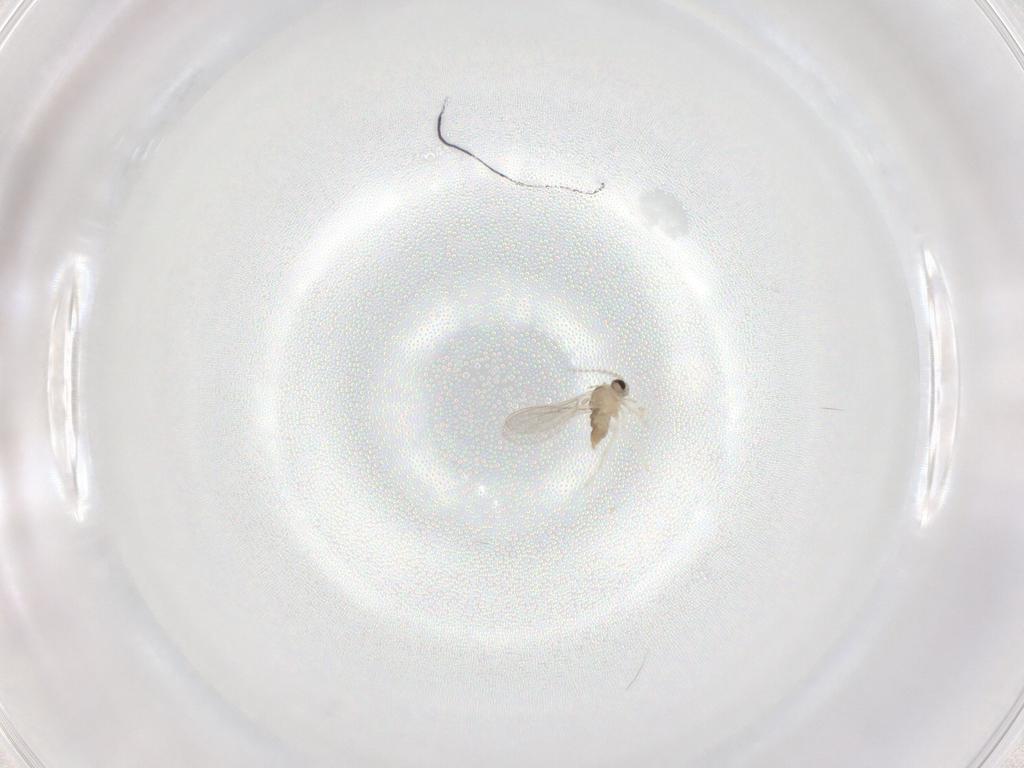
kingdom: Animalia
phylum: Arthropoda
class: Insecta
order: Diptera
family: Cecidomyiidae
